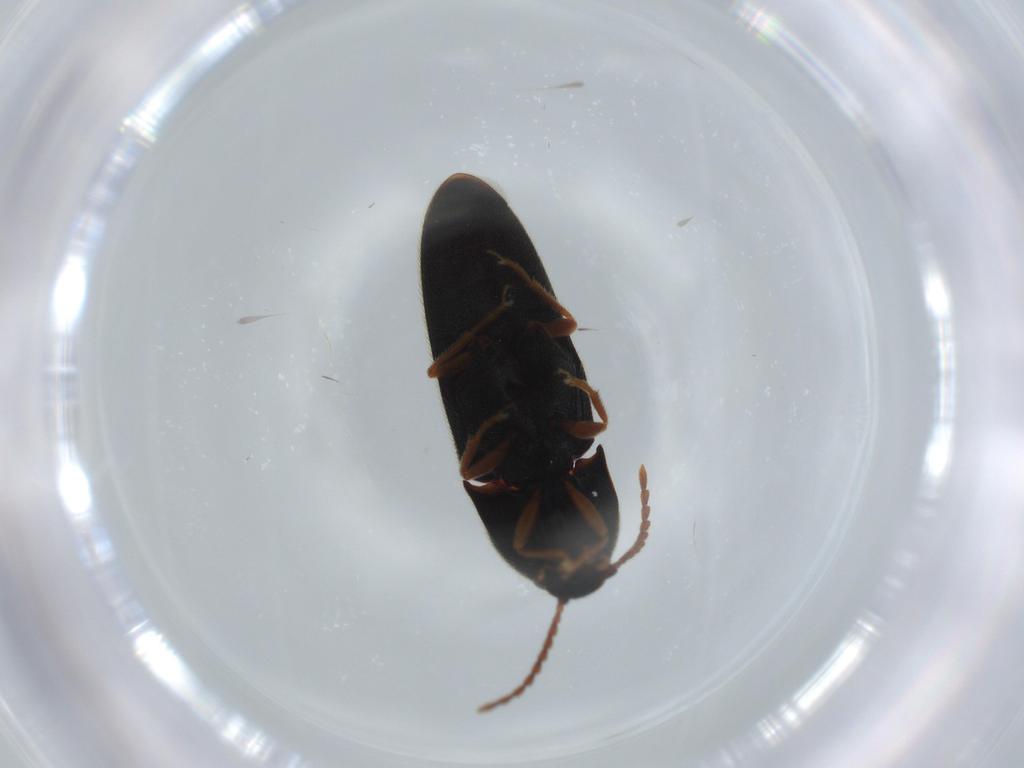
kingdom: Animalia
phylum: Arthropoda
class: Insecta
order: Coleoptera
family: Elateridae
